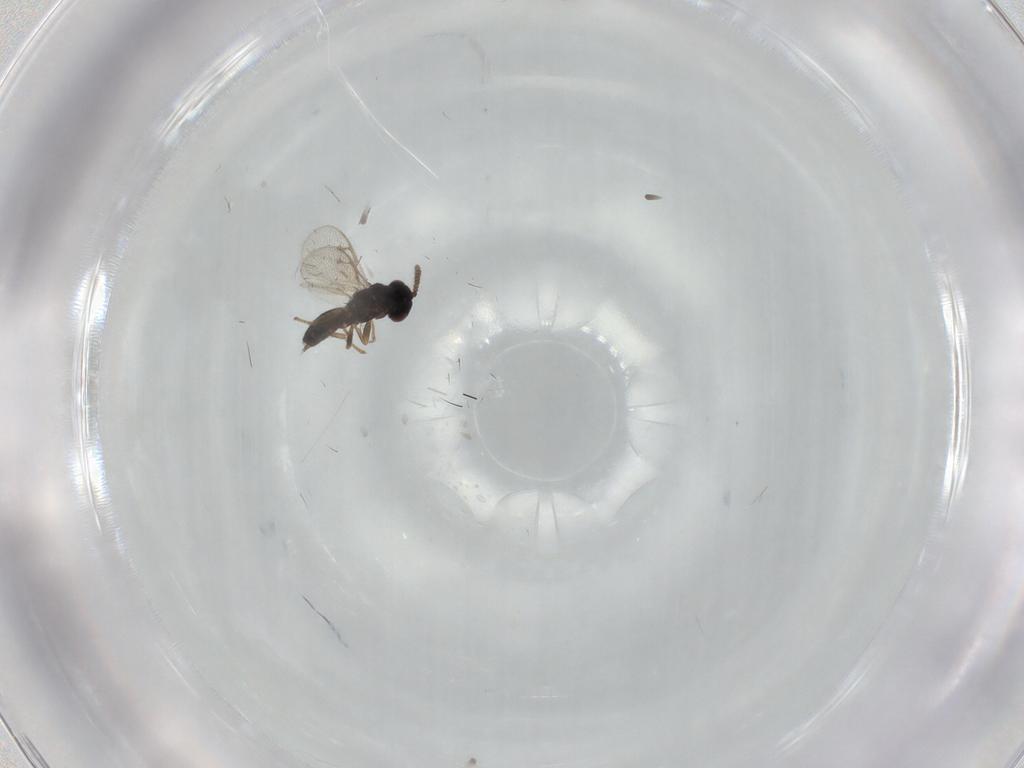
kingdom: Animalia
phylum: Arthropoda
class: Insecta
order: Hymenoptera
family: Pirenidae
